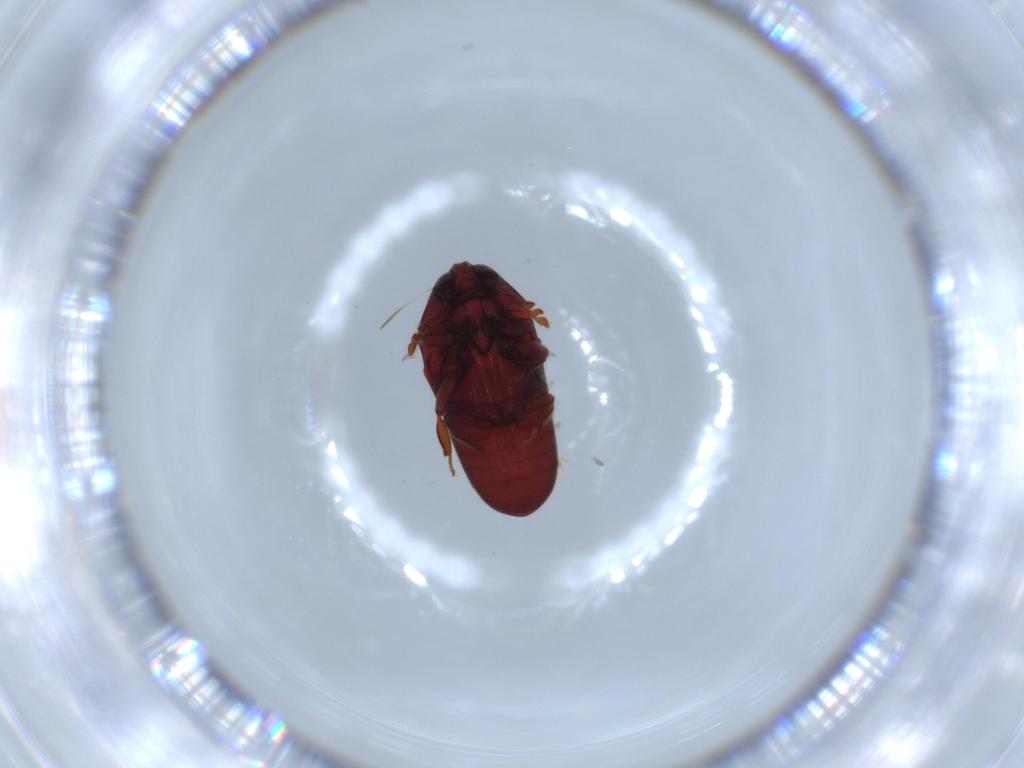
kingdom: Animalia
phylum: Arthropoda
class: Insecta
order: Coleoptera
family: Throscidae
